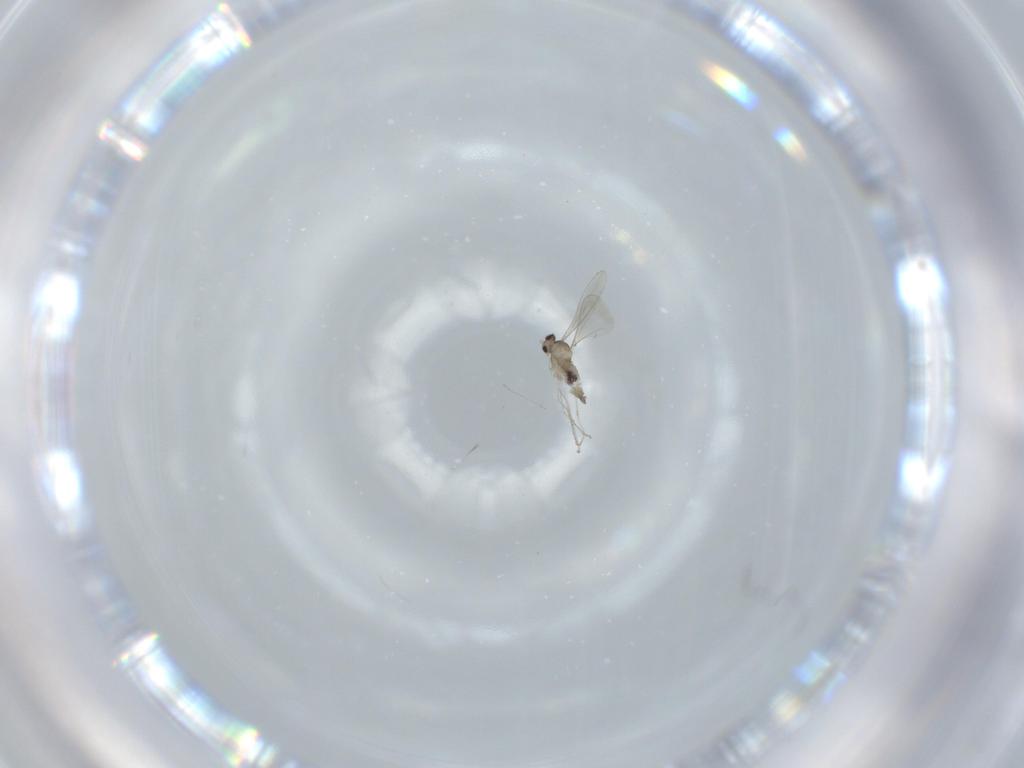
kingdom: Animalia
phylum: Arthropoda
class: Insecta
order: Diptera
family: Cecidomyiidae
